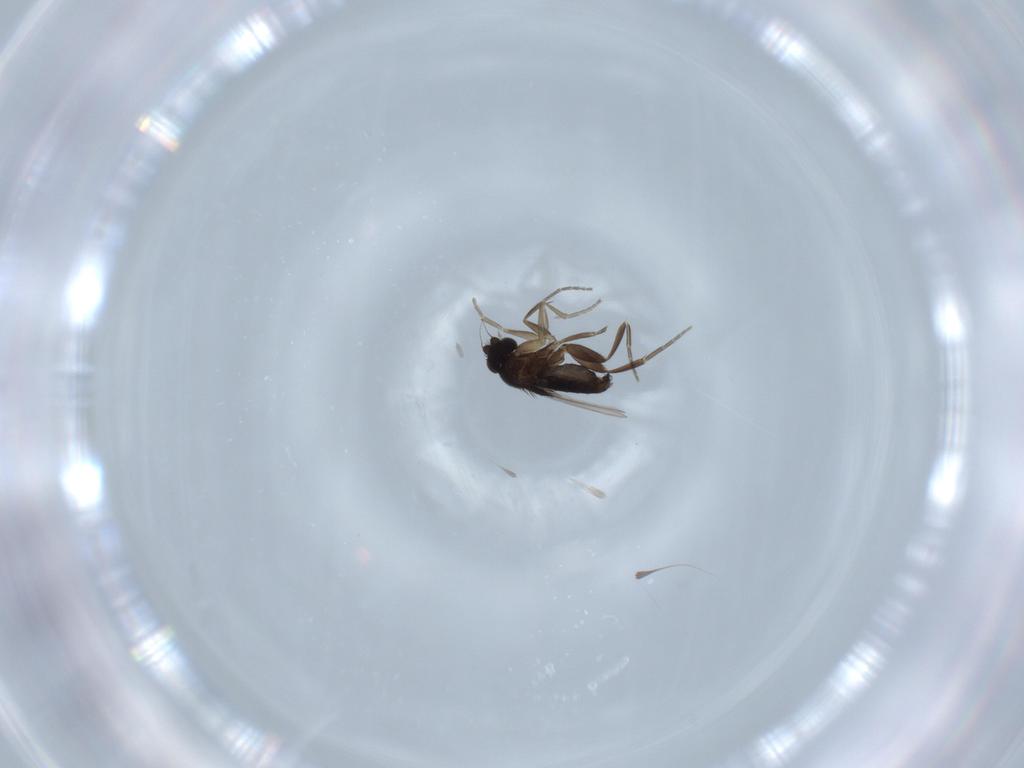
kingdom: Animalia
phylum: Arthropoda
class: Insecta
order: Diptera
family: Phoridae
